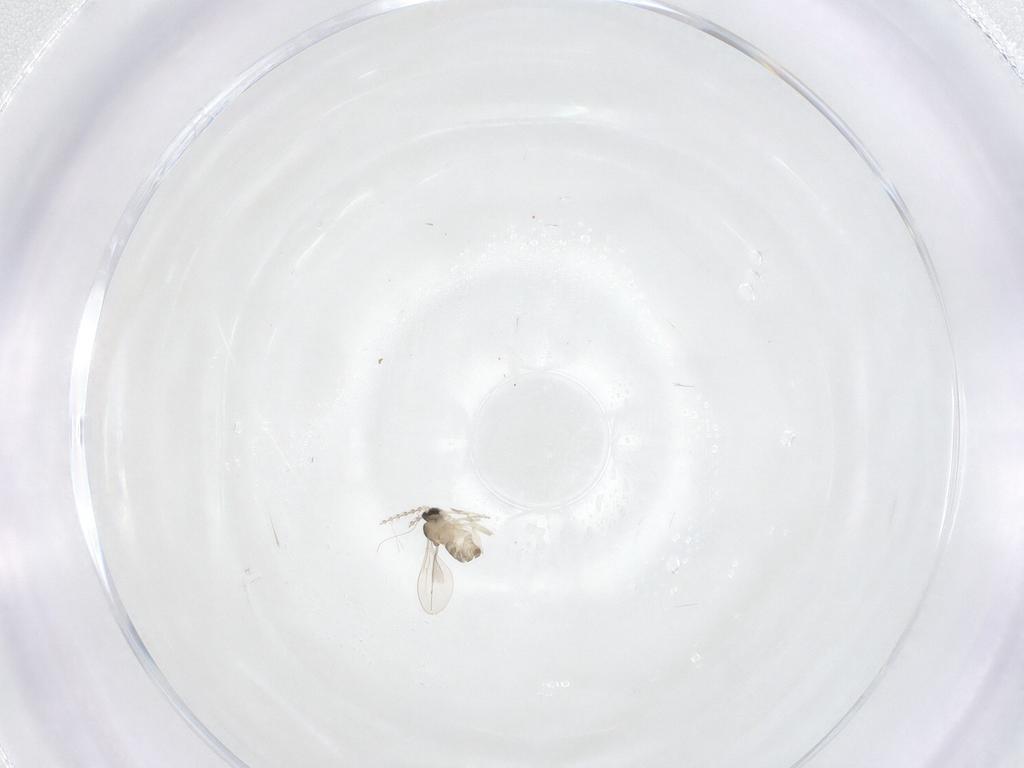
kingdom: Animalia
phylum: Arthropoda
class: Insecta
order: Diptera
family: Cecidomyiidae
